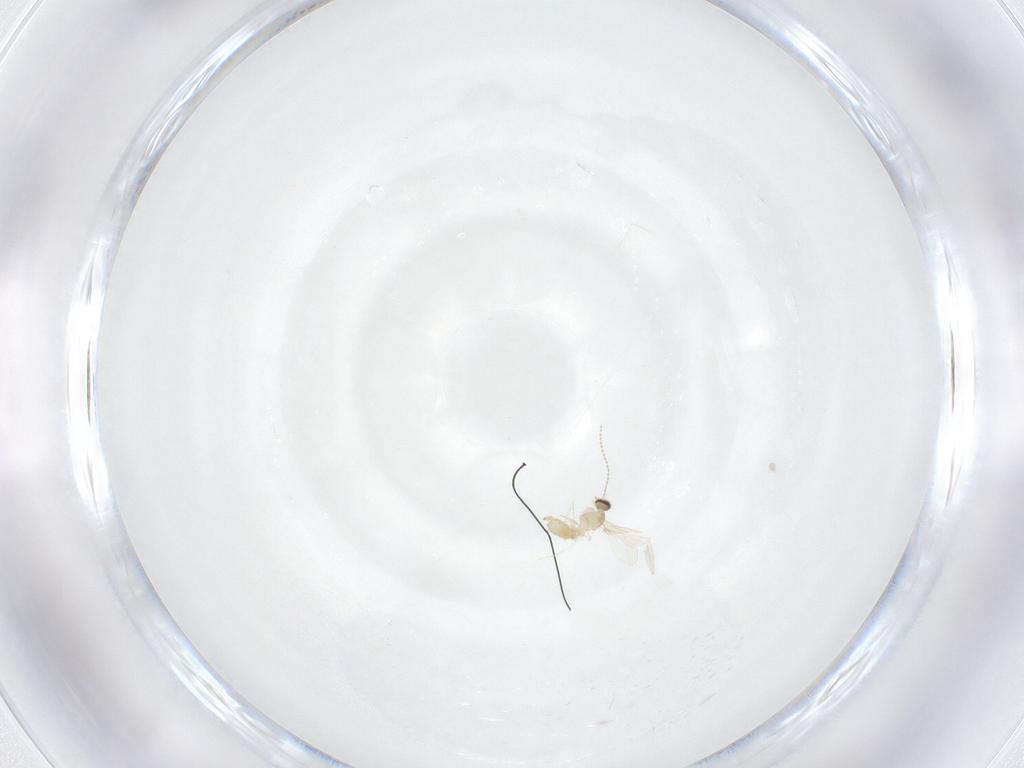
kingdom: Animalia
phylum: Arthropoda
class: Insecta
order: Diptera
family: Cecidomyiidae
